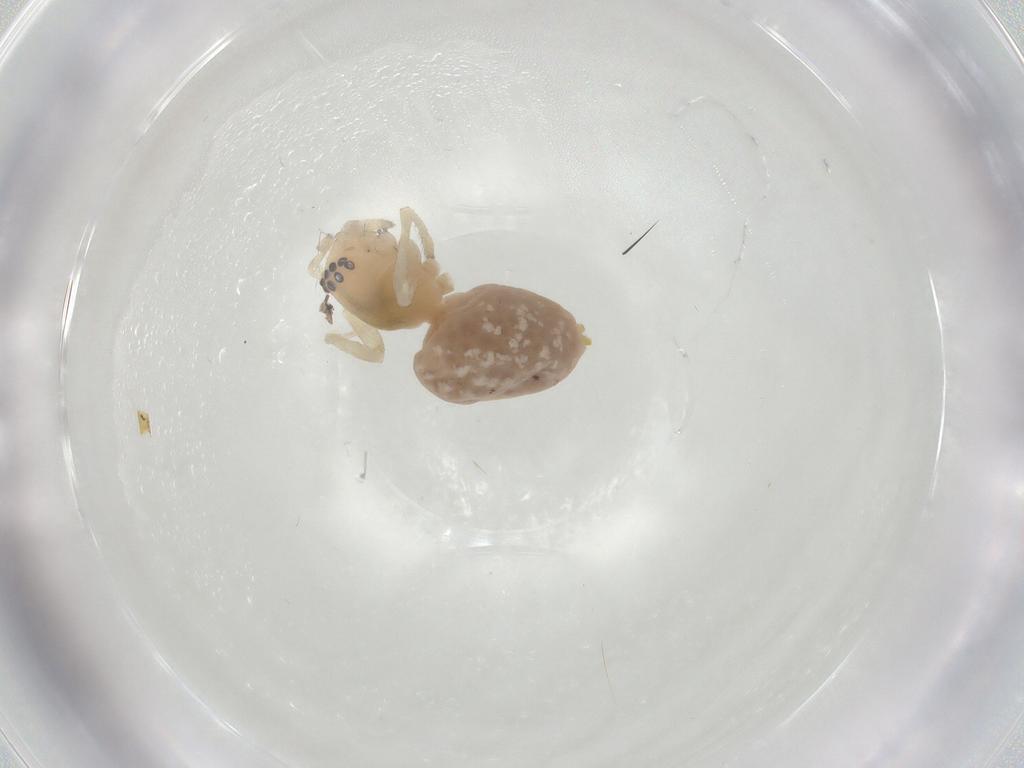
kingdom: Animalia
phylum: Arthropoda
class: Arachnida
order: Araneae
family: Cheiracanthiidae
